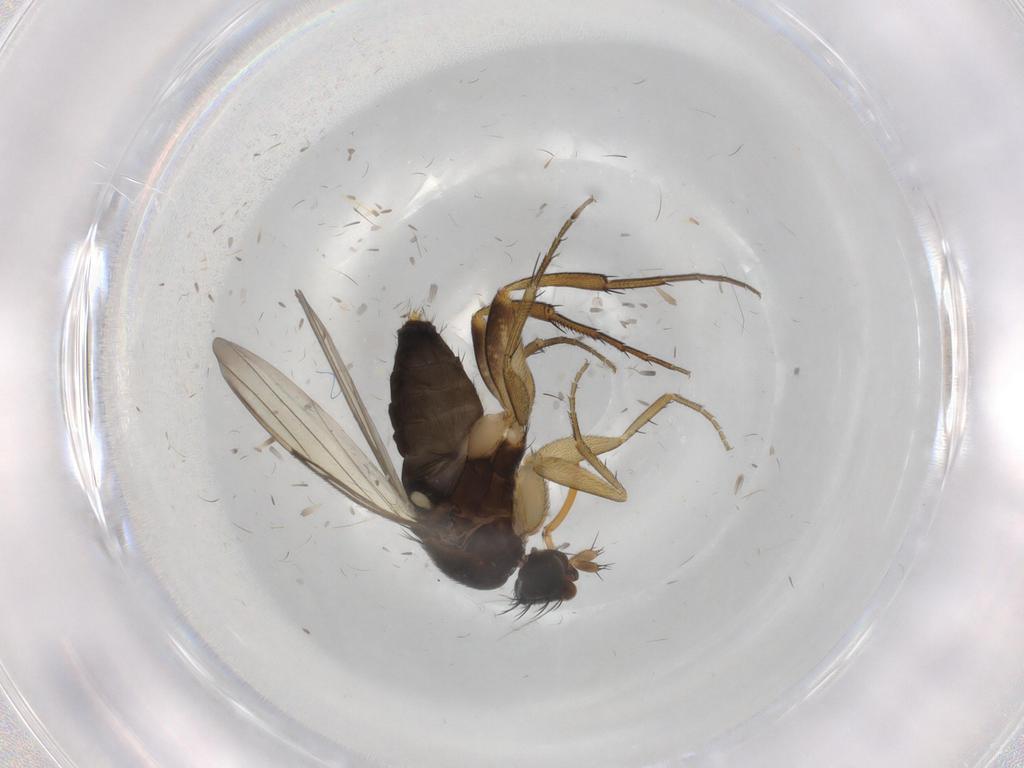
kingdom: Animalia
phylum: Arthropoda
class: Insecta
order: Diptera
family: Phoridae
